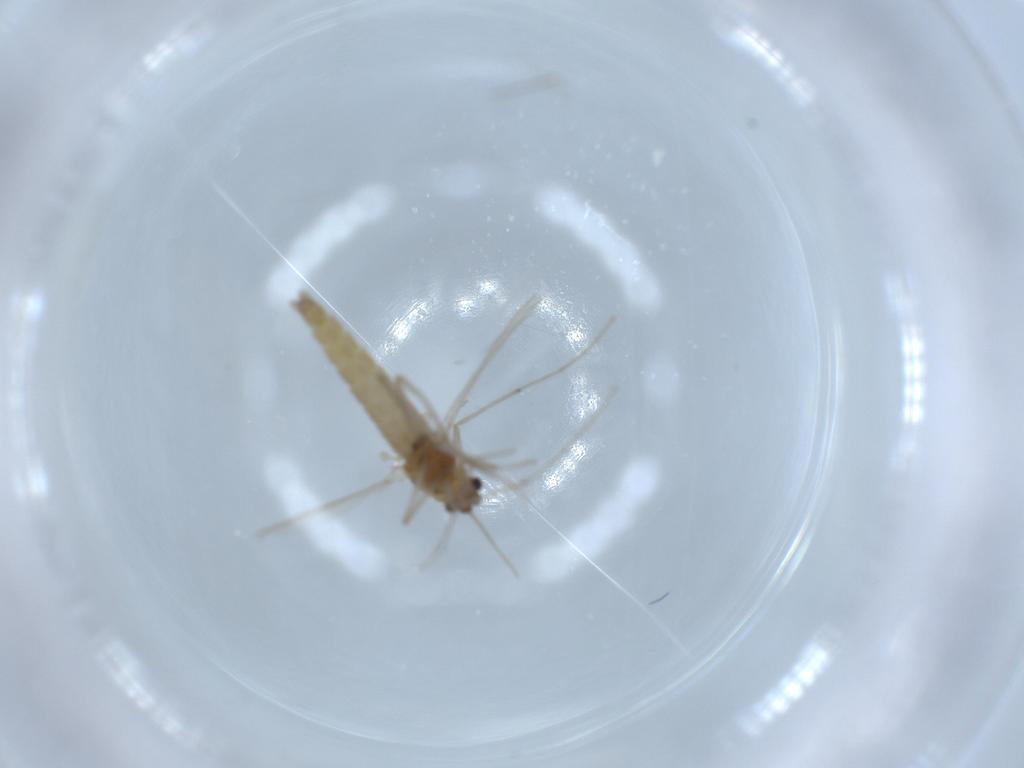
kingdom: Animalia
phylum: Arthropoda
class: Insecta
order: Diptera
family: Chironomidae
